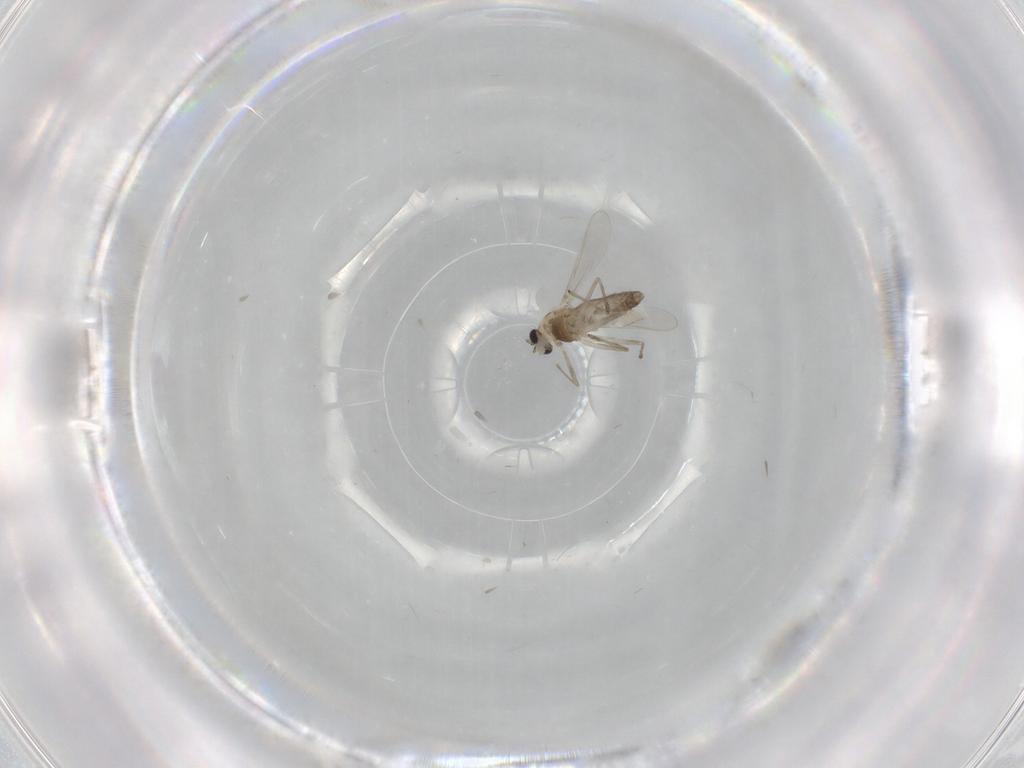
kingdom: Animalia
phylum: Arthropoda
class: Insecta
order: Diptera
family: Chironomidae
